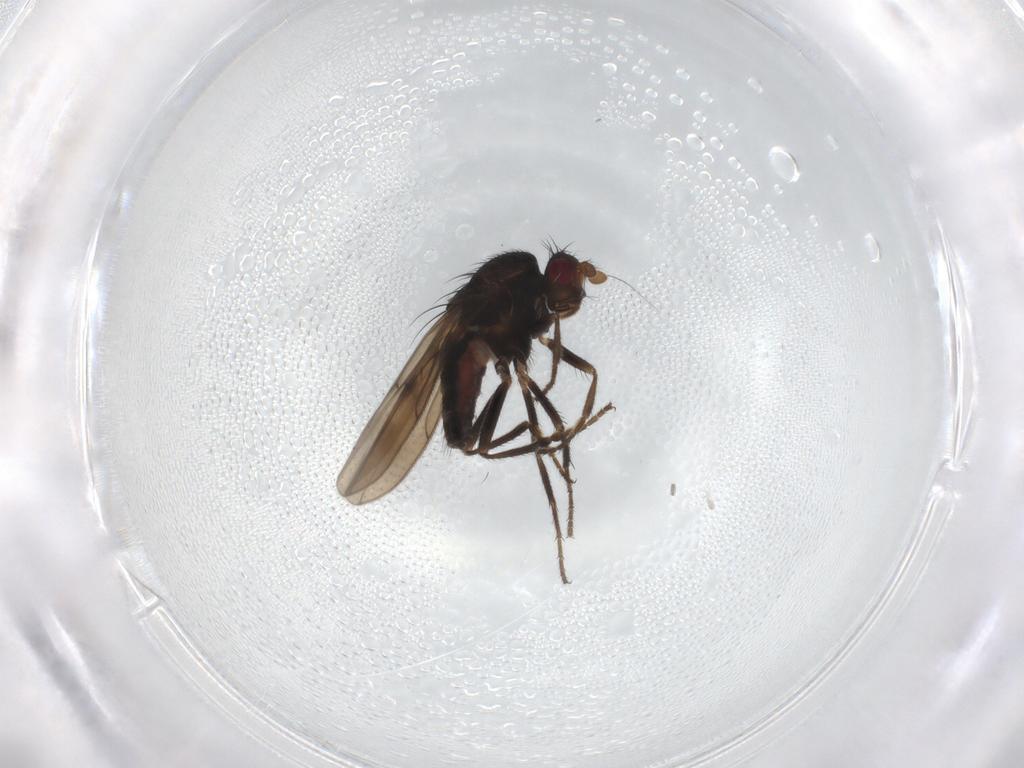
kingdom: Animalia
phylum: Arthropoda
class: Insecta
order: Diptera
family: Sphaeroceridae
